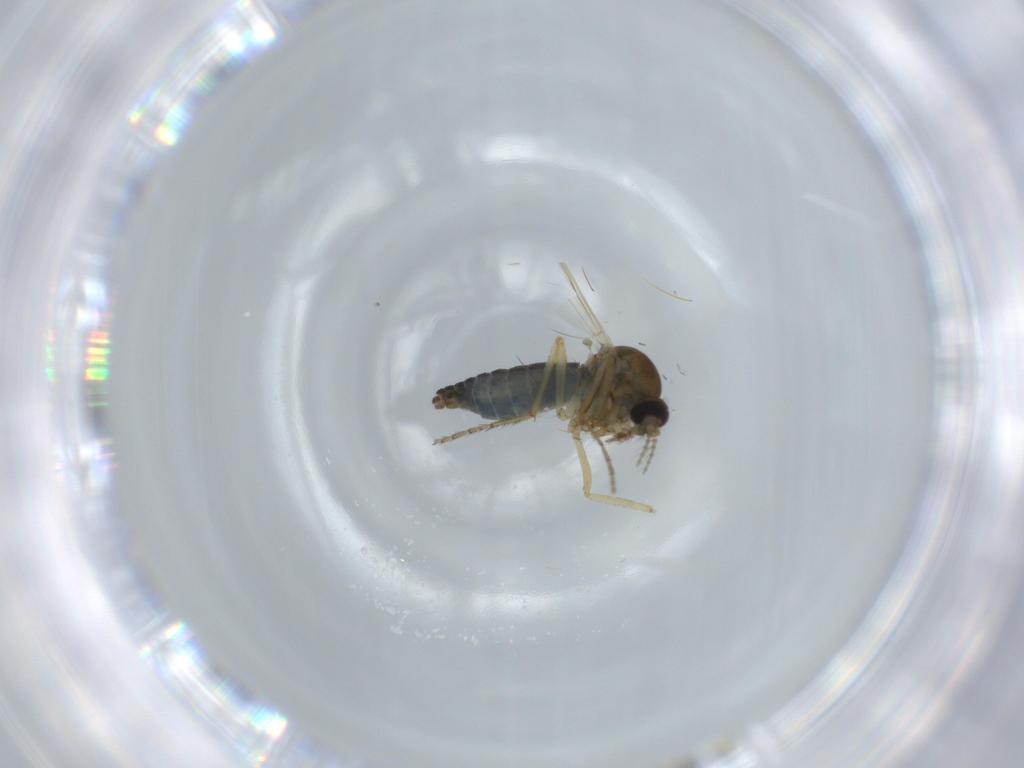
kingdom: Animalia
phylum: Arthropoda
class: Insecta
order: Diptera
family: Ceratopogonidae
